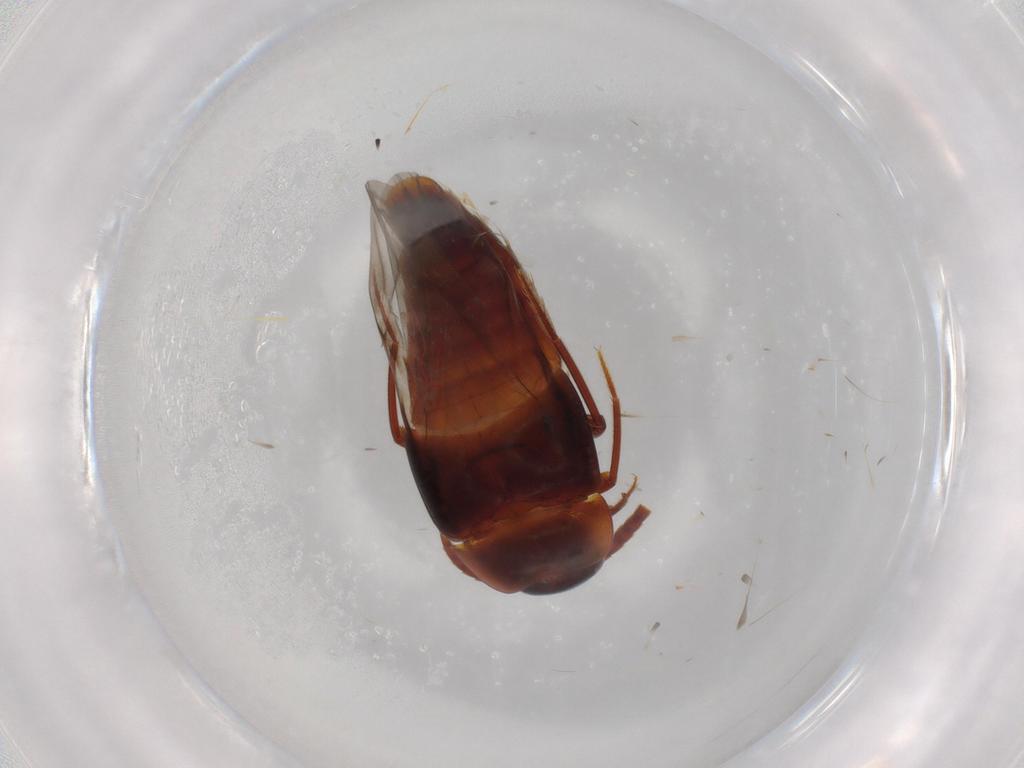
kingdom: Animalia
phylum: Arthropoda
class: Insecta
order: Coleoptera
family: Staphylinidae
